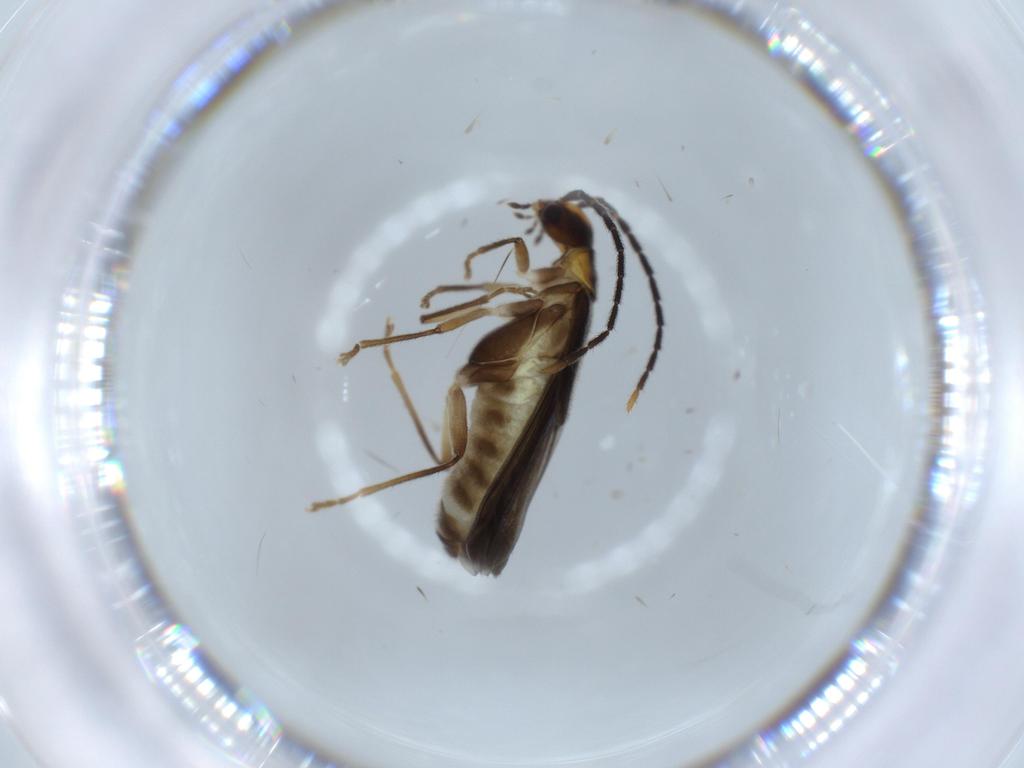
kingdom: Animalia
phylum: Arthropoda
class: Insecta
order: Coleoptera
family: Cantharidae
